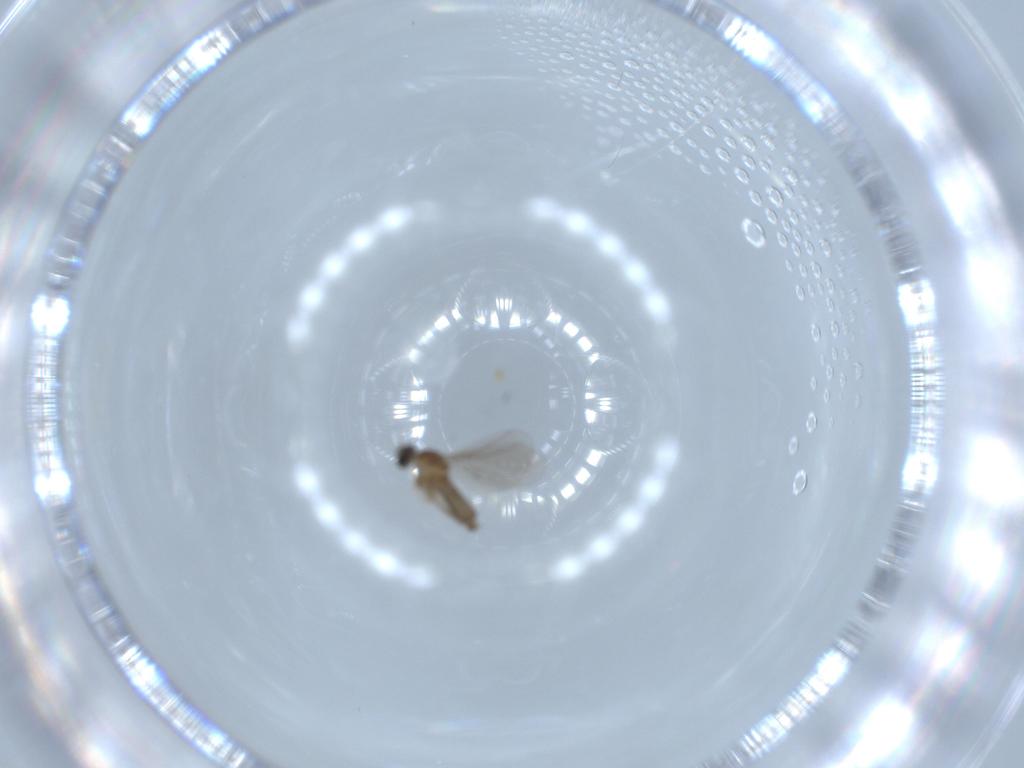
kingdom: Animalia
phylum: Arthropoda
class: Insecta
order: Diptera
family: Cecidomyiidae
